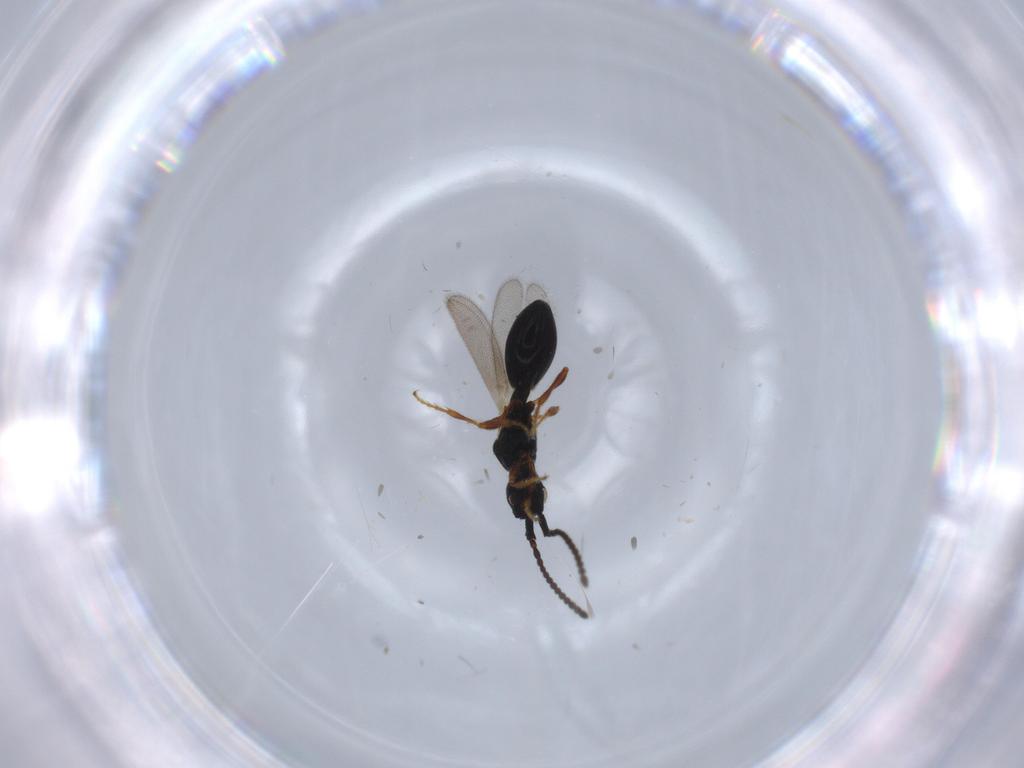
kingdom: Animalia
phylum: Arthropoda
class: Insecta
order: Hymenoptera
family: Diapriidae
